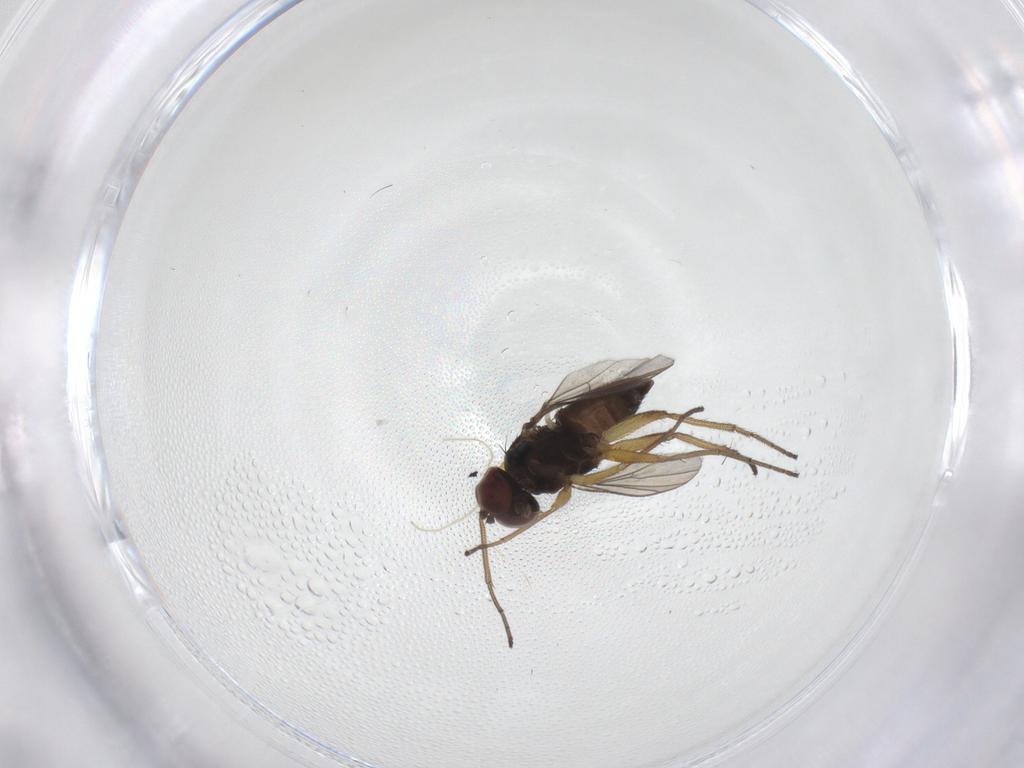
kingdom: Animalia
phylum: Arthropoda
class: Insecta
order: Diptera
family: Dolichopodidae
